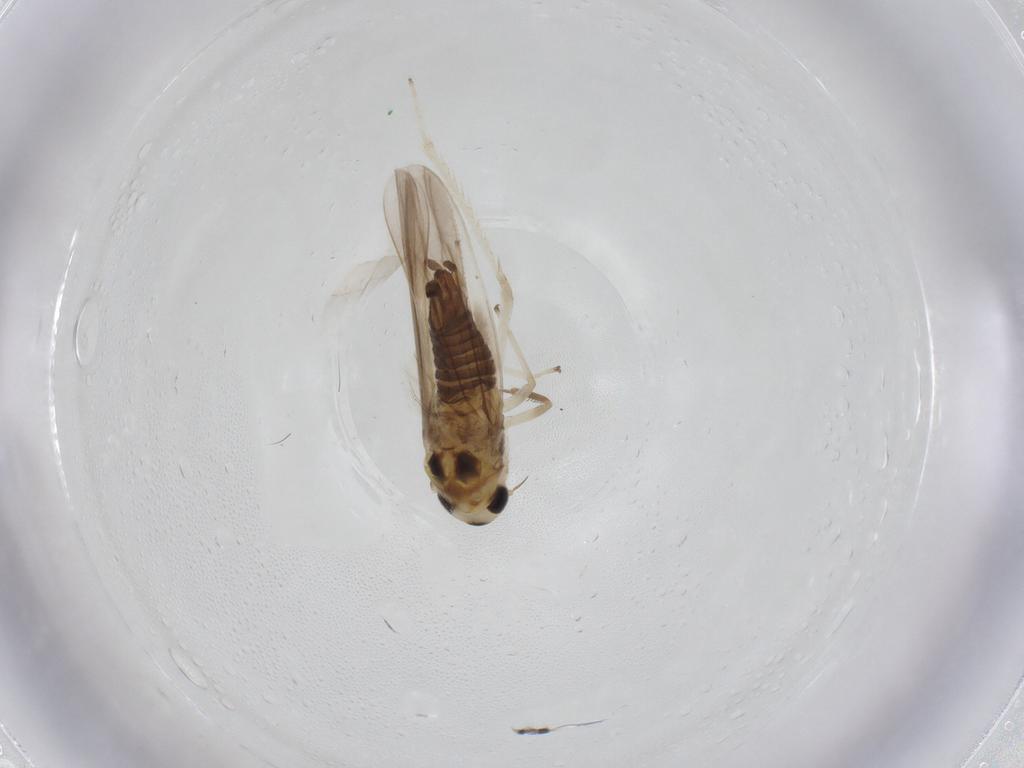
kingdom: Animalia
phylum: Arthropoda
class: Insecta
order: Hemiptera
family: Cicadellidae
